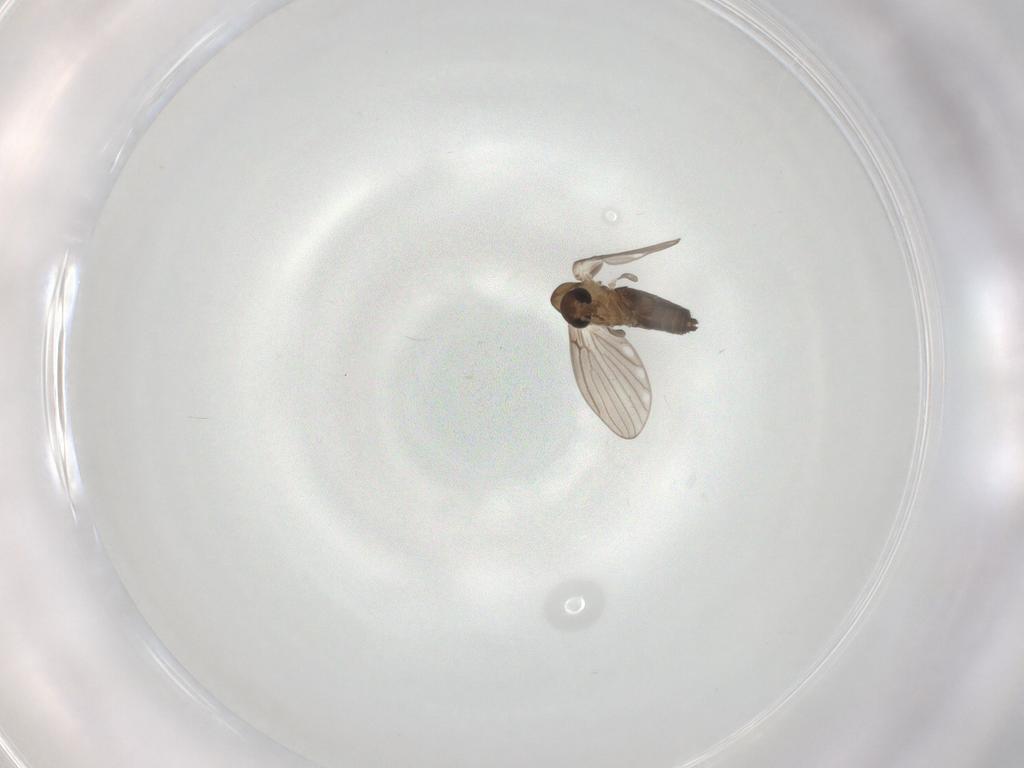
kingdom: Animalia
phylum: Arthropoda
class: Insecta
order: Diptera
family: Psychodidae
